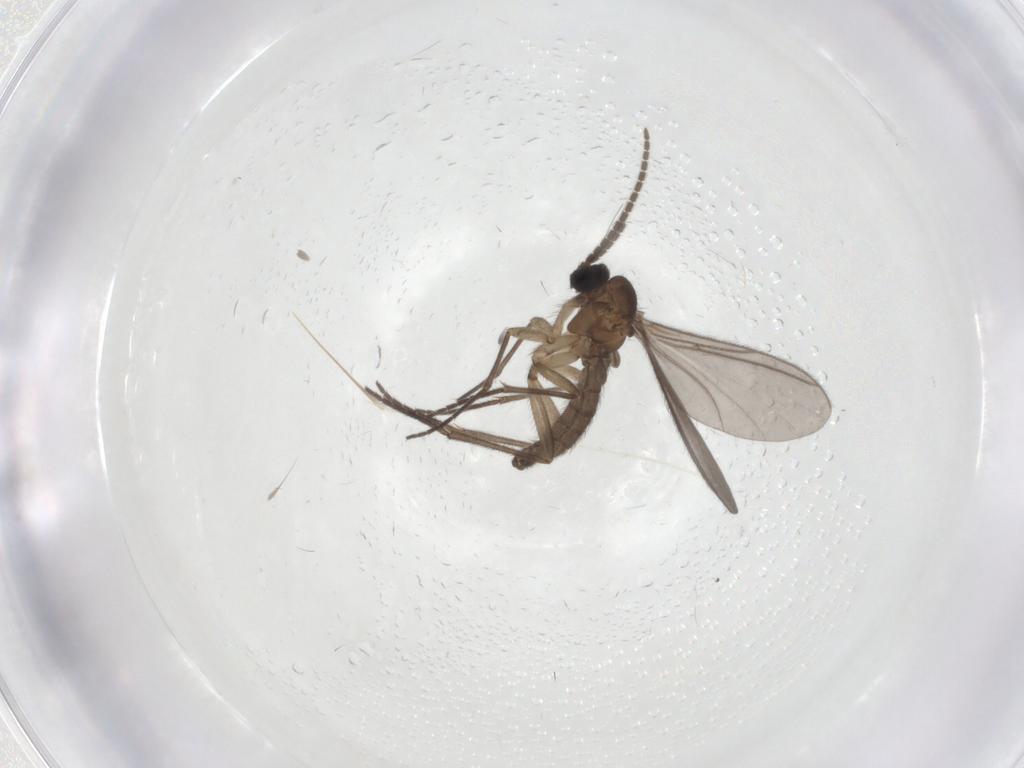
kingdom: Animalia
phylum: Arthropoda
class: Insecta
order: Diptera
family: Sciaridae
